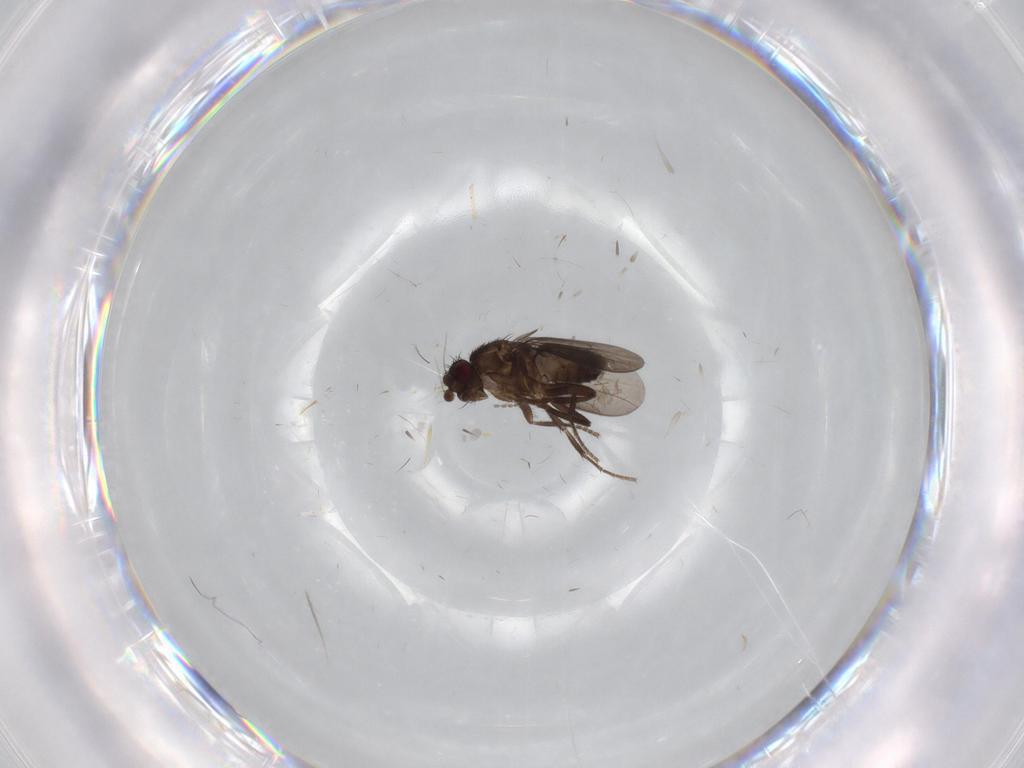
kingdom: Animalia
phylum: Arthropoda
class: Insecta
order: Diptera
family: Sphaeroceridae
